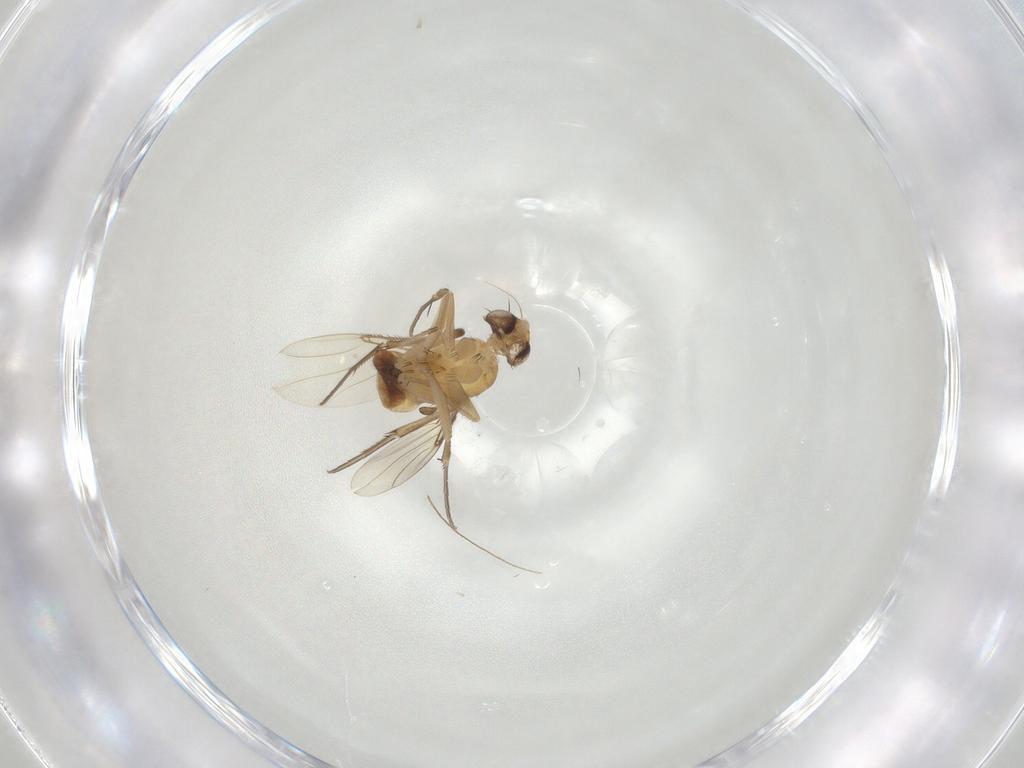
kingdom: Animalia
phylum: Arthropoda
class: Insecta
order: Diptera
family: Phoridae
